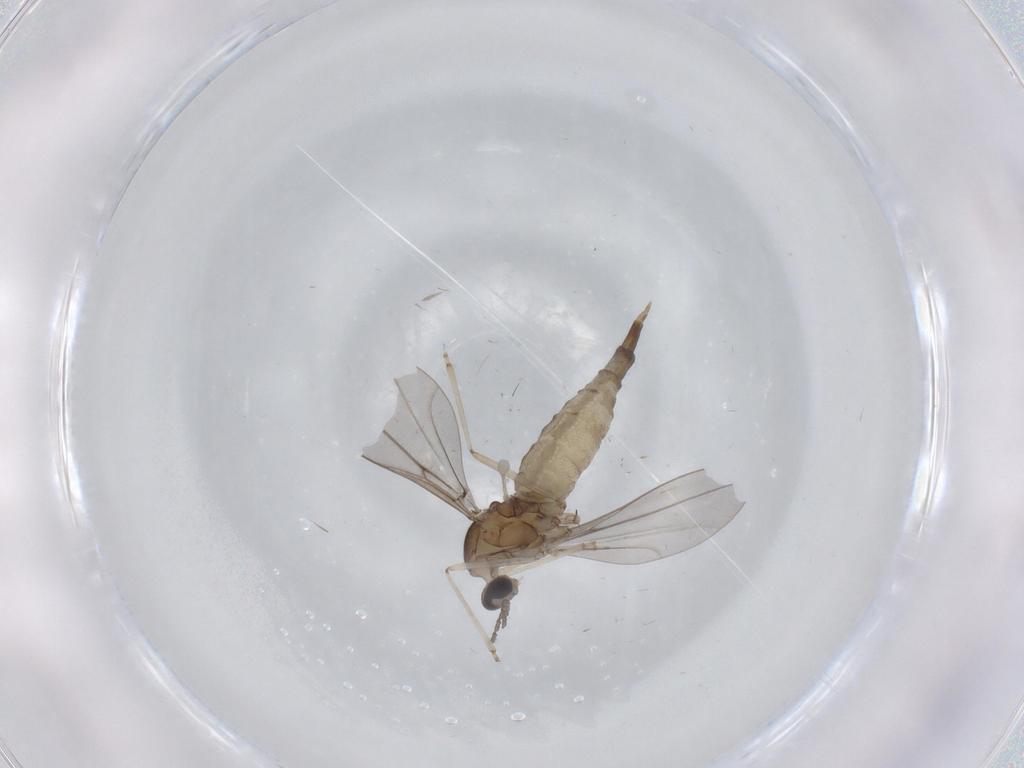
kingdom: Animalia
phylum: Arthropoda
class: Insecta
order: Diptera
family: Cecidomyiidae
